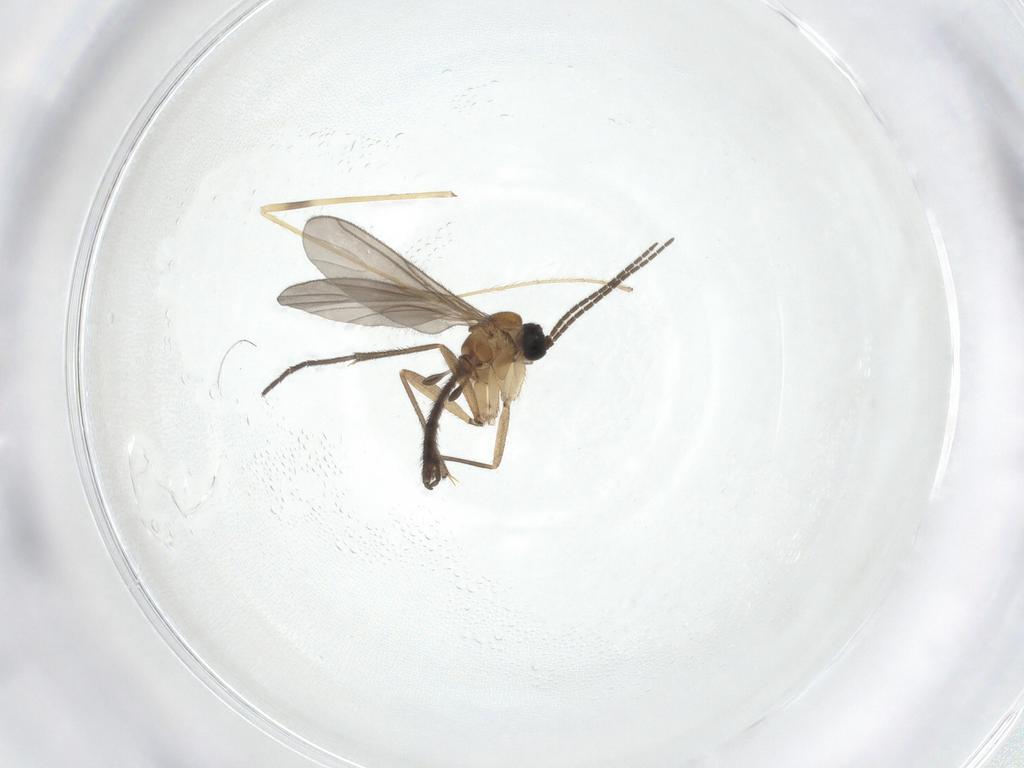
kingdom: Animalia
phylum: Arthropoda
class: Insecta
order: Diptera
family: Sciaridae
